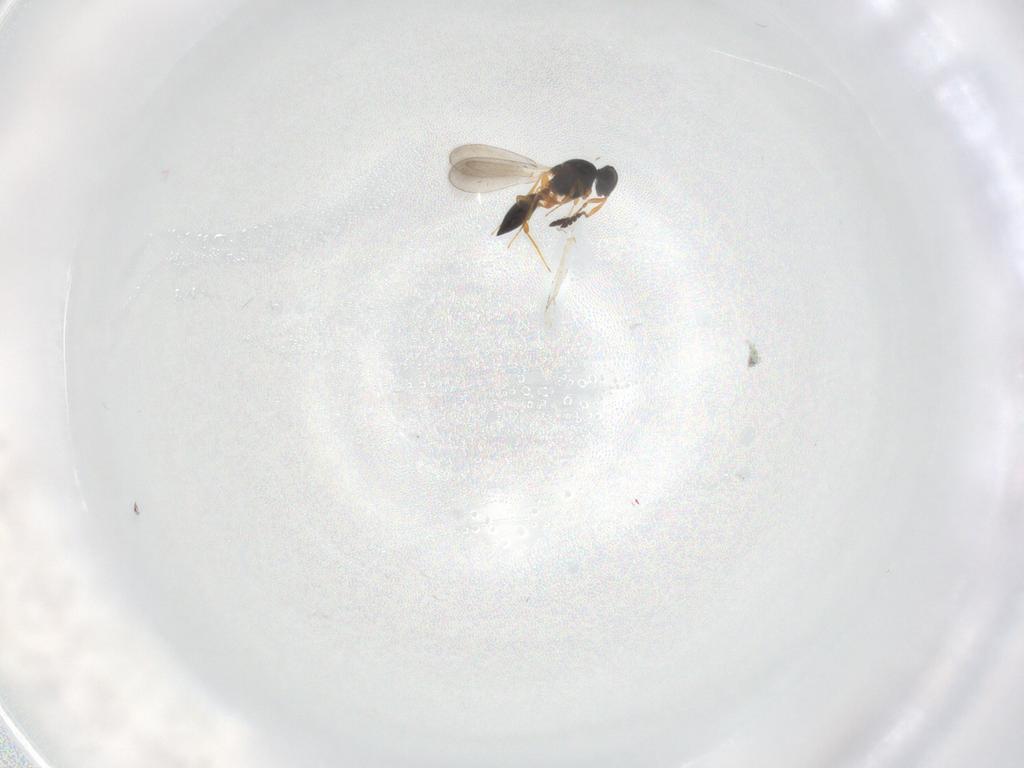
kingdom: Animalia
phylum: Arthropoda
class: Insecta
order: Hymenoptera
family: Platygastridae
